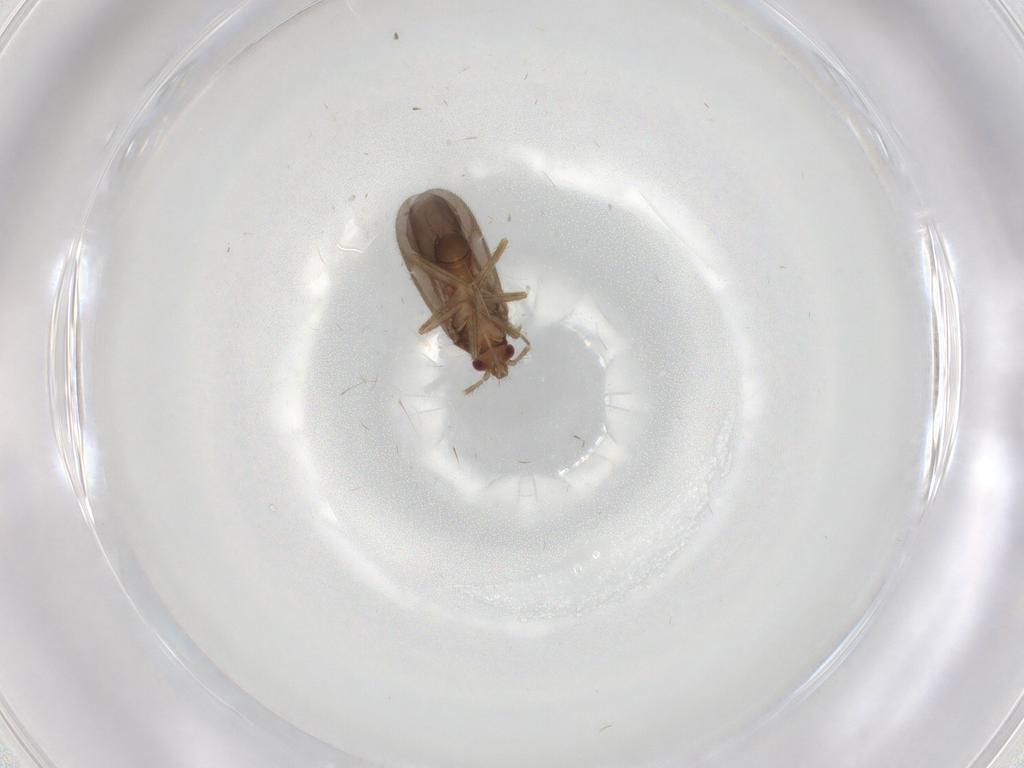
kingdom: Animalia
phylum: Arthropoda
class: Insecta
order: Hemiptera
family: Ceratocombidae
